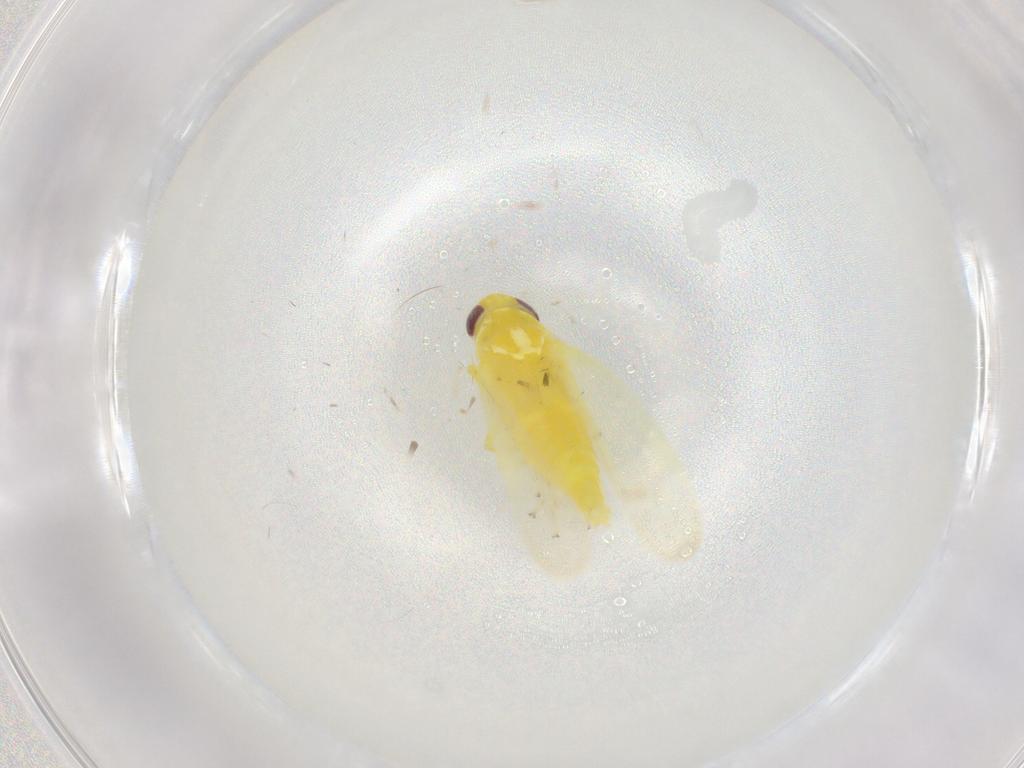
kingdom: Animalia
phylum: Arthropoda
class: Insecta
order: Hemiptera
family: Cicadellidae
